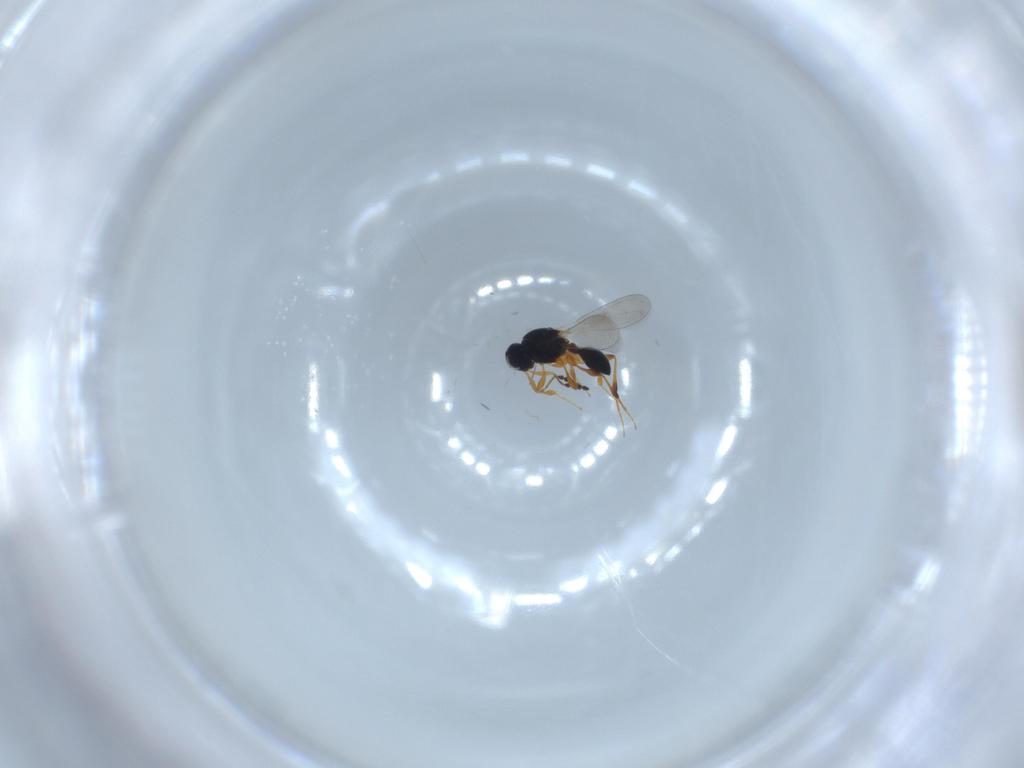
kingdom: Animalia
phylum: Arthropoda
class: Insecta
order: Hymenoptera
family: Platygastridae
